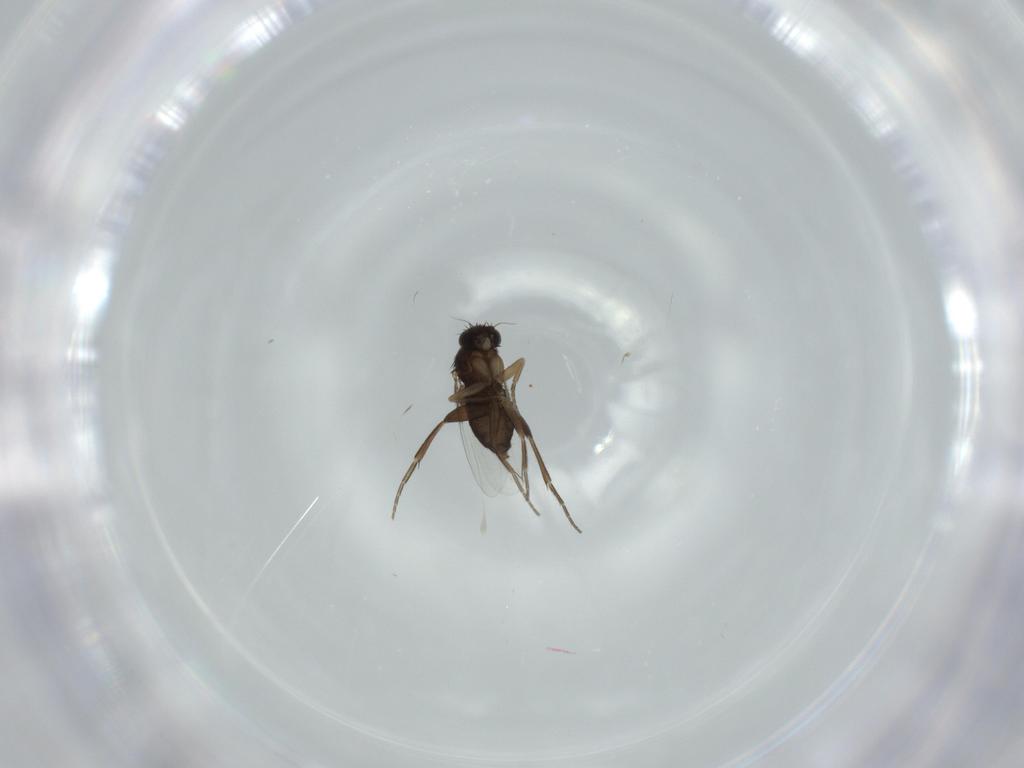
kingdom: Animalia
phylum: Arthropoda
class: Insecta
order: Diptera
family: Phoridae
